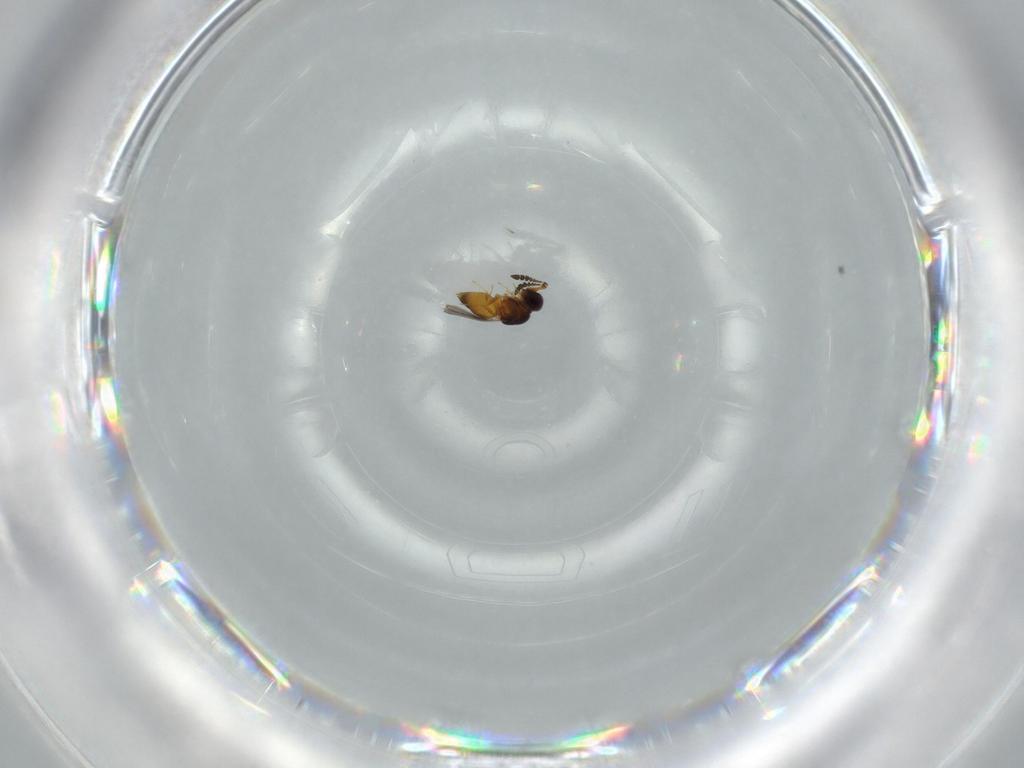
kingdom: Animalia
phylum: Arthropoda
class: Insecta
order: Hymenoptera
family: Ceraphronidae
